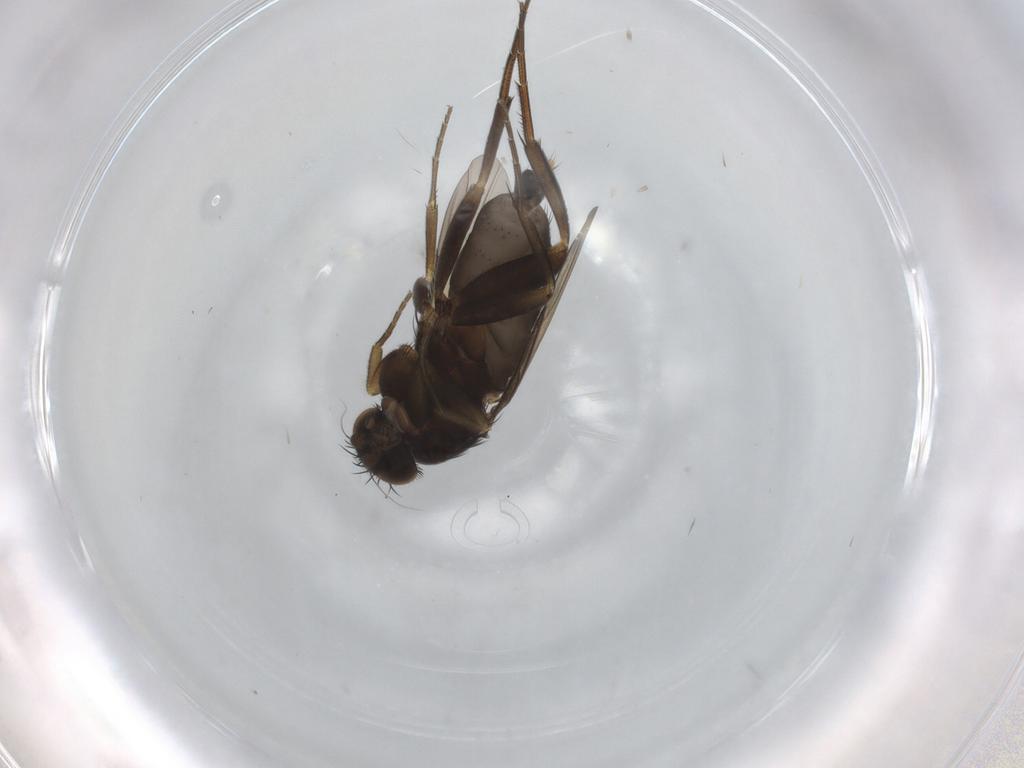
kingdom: Animalia
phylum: Arthropoda
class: Insecta
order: Diptera
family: Phoridae
